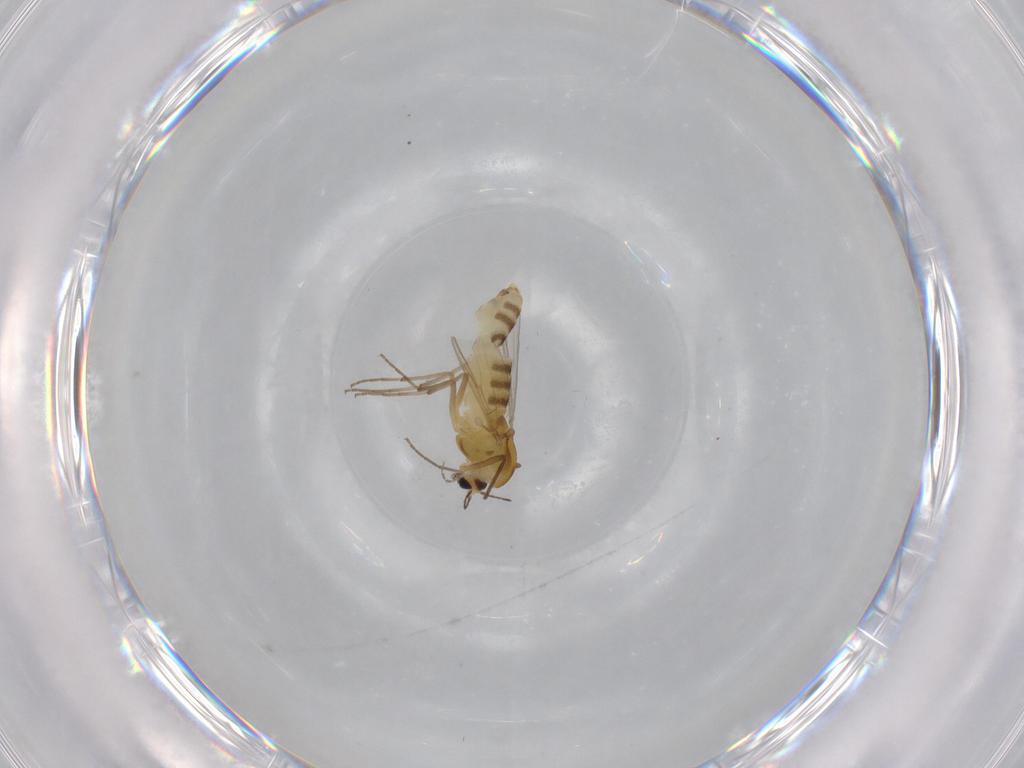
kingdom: Animalia
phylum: Arthropoda
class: Insecta
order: Diptera
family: Chironomidae
